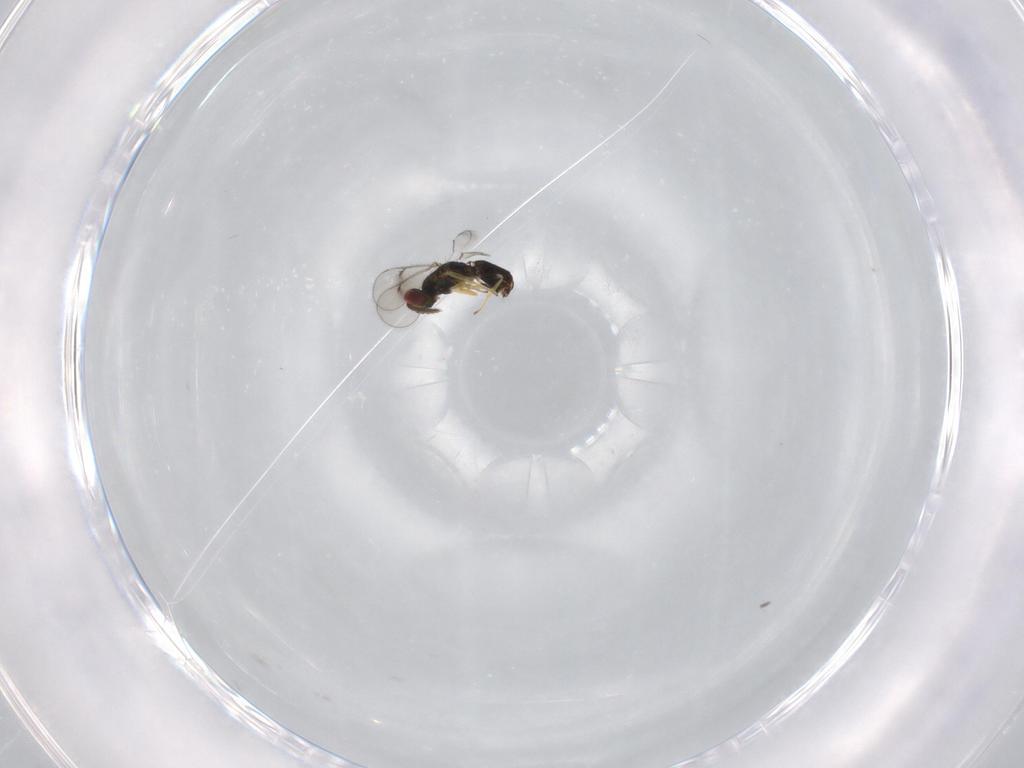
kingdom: Animalia
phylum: Arthropoda
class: Insecta
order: Hymenoptera
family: Eulophidae
